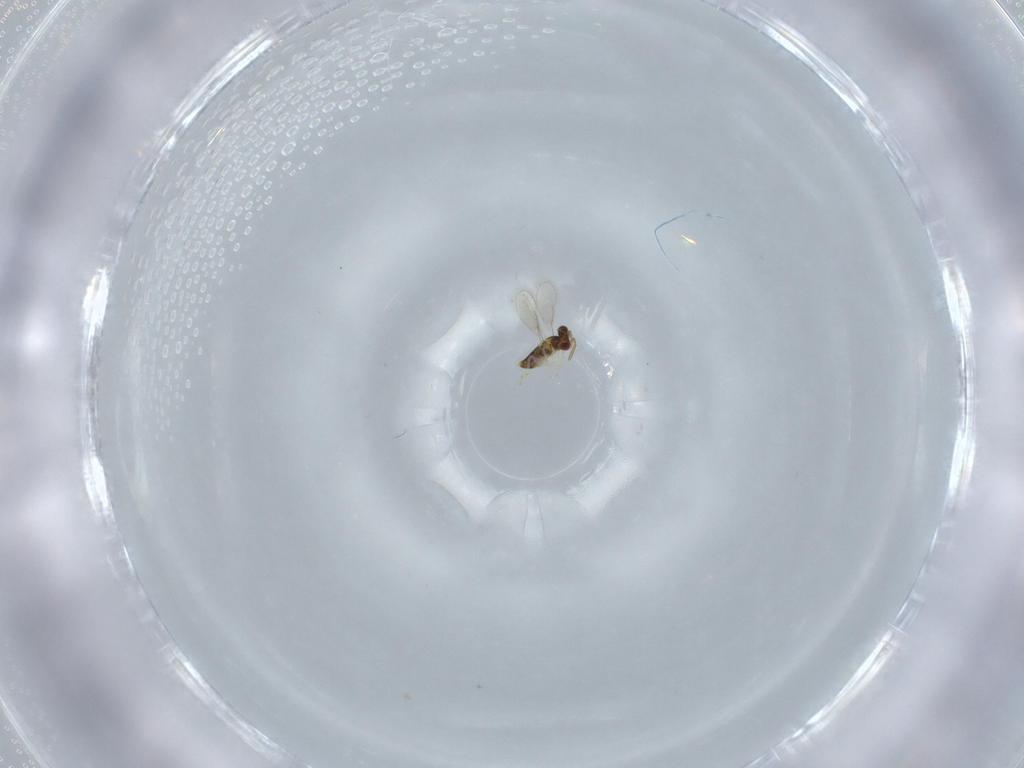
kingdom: Animalia
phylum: Arthropoda
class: Insecta
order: Hymenoptera
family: Aphelinidae
